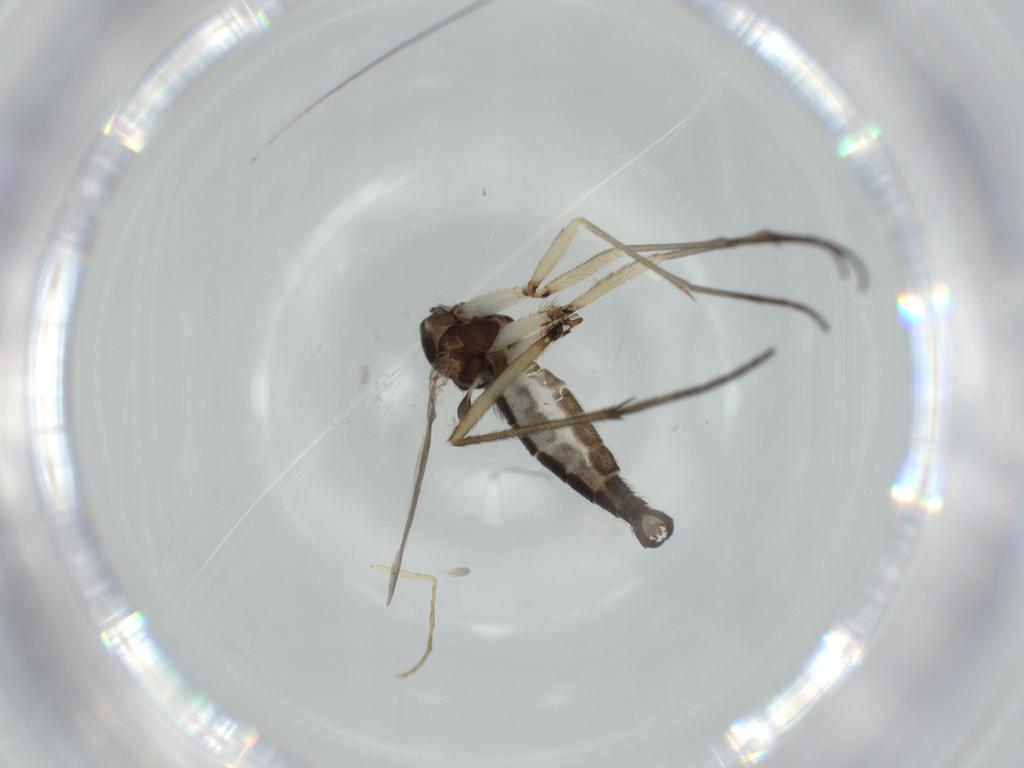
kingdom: Animalia
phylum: Arthropoda
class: Insecta
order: Diptera
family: Sciaridae
